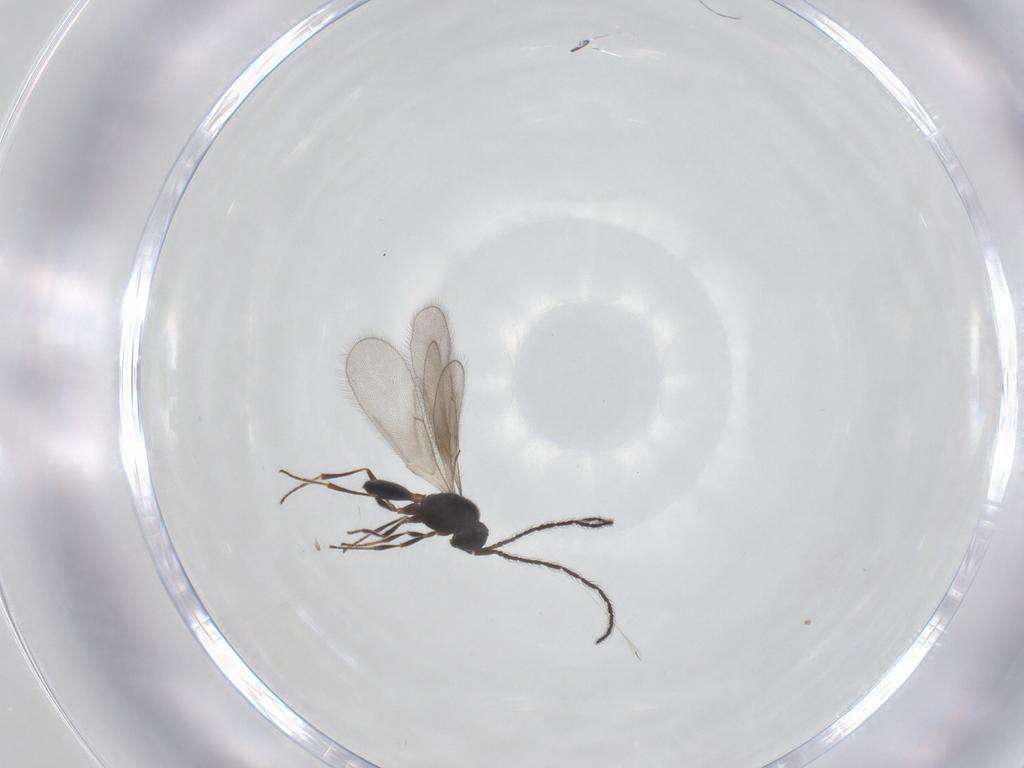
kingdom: Animalia
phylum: Arthropoda
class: Insecta
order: Hymenoptera
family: Scelionidae
